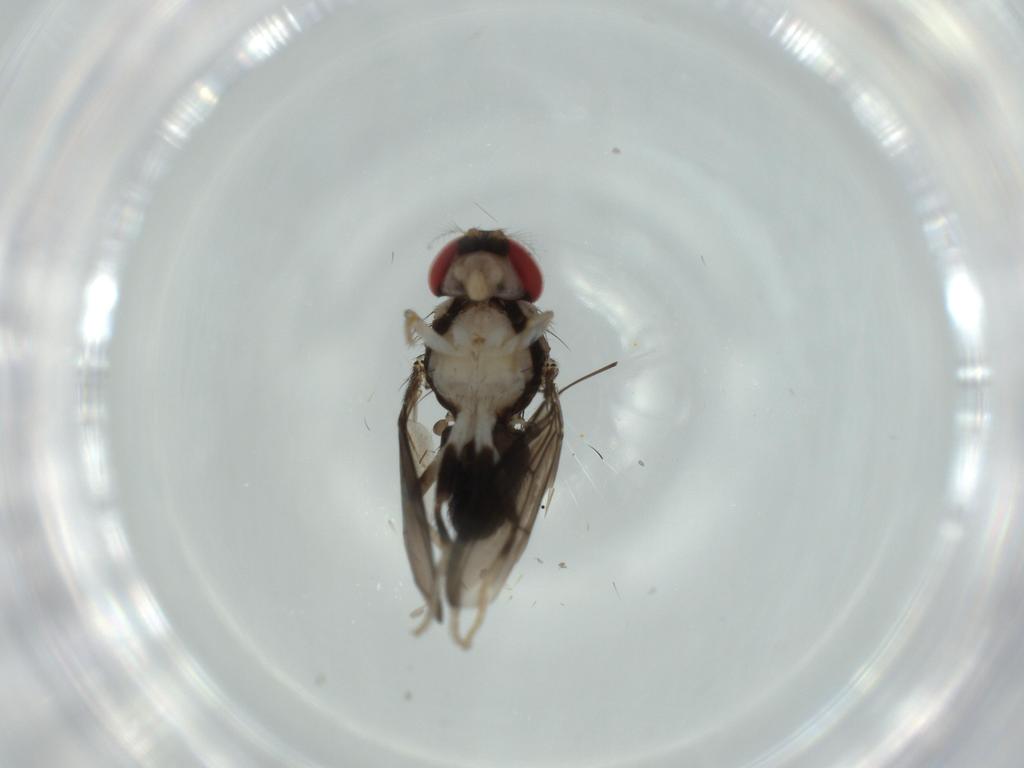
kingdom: Animalia
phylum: Arthropoda
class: Insecta
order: Diptera
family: Drosophilidae
